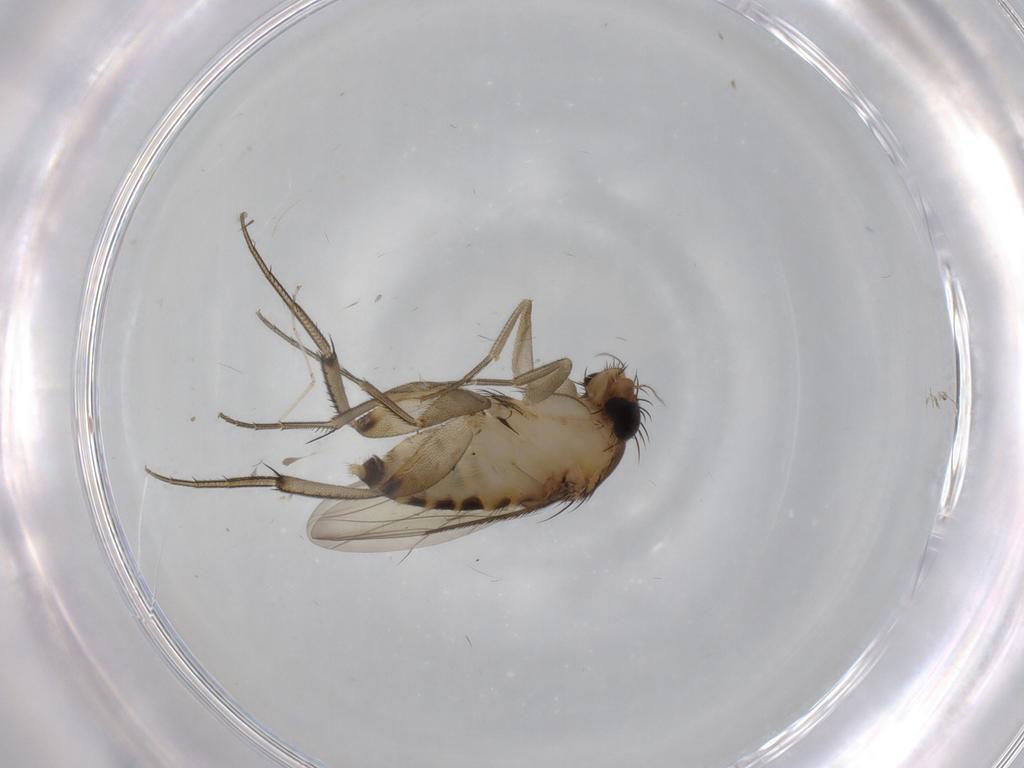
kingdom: Animalia
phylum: Arthropoda
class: Insecta
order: Diptera
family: Phoridae
